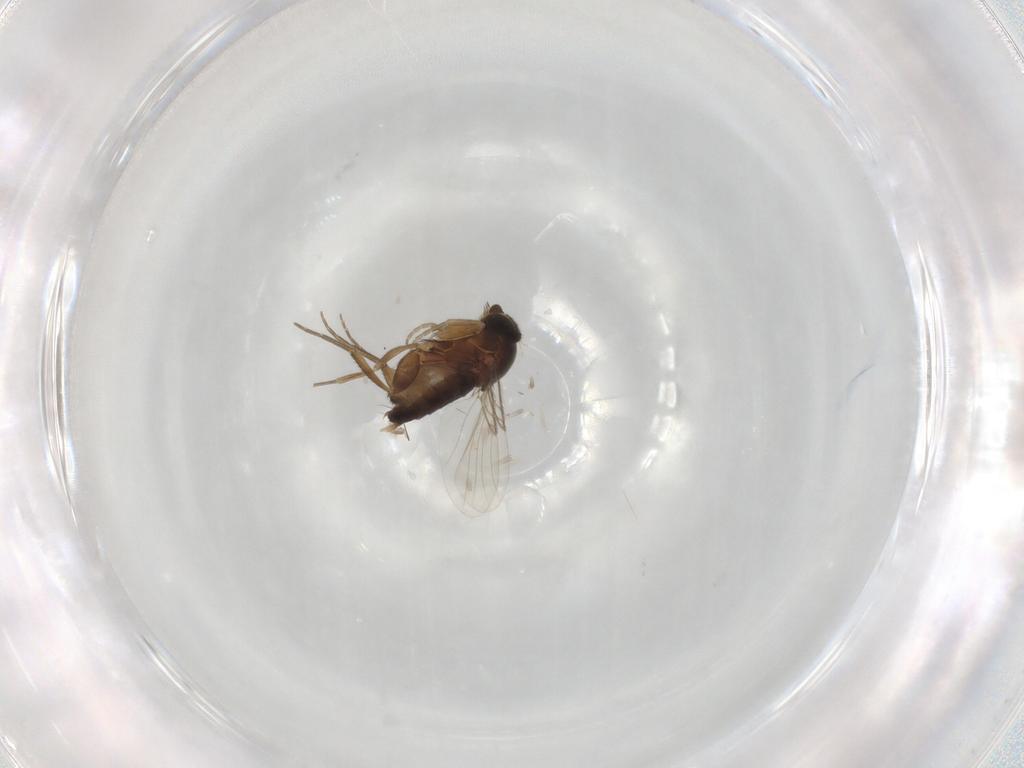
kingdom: Animalia
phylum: Arthropoda
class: Insecta
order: Diptera
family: Phoridae
